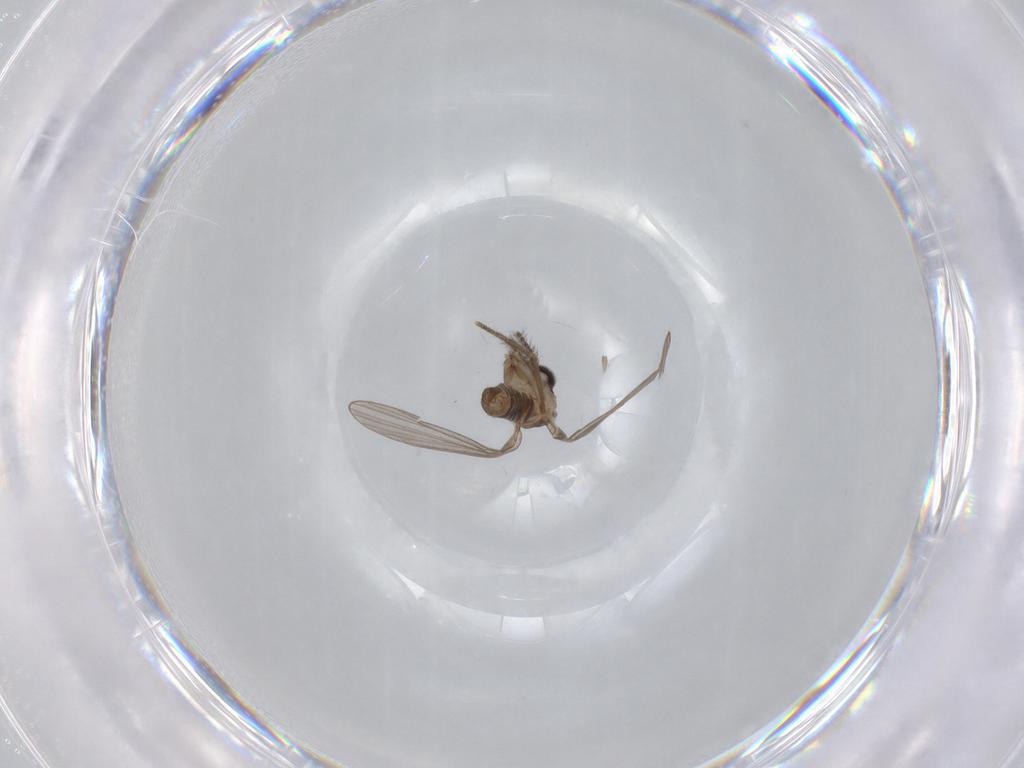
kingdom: Animalia
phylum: Arthropoda
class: Insecta
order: Diptera
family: Psychodidae
